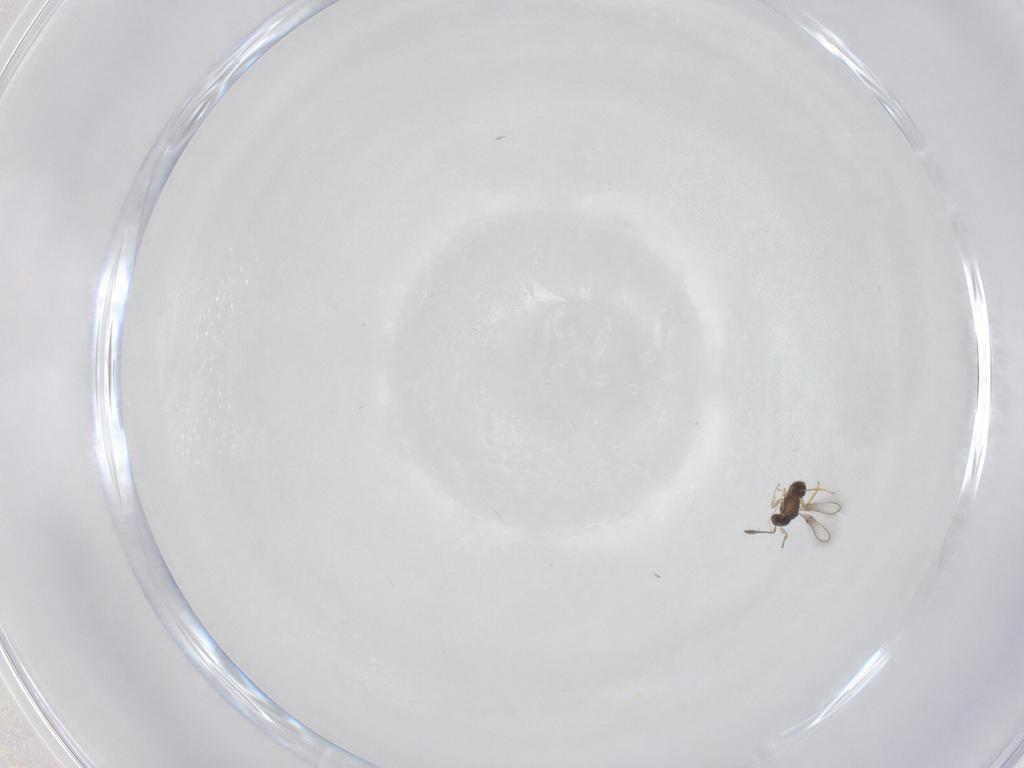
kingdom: Animalia
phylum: Arthropoda
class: Insecta
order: Hymenoptera
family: Mymaridae
